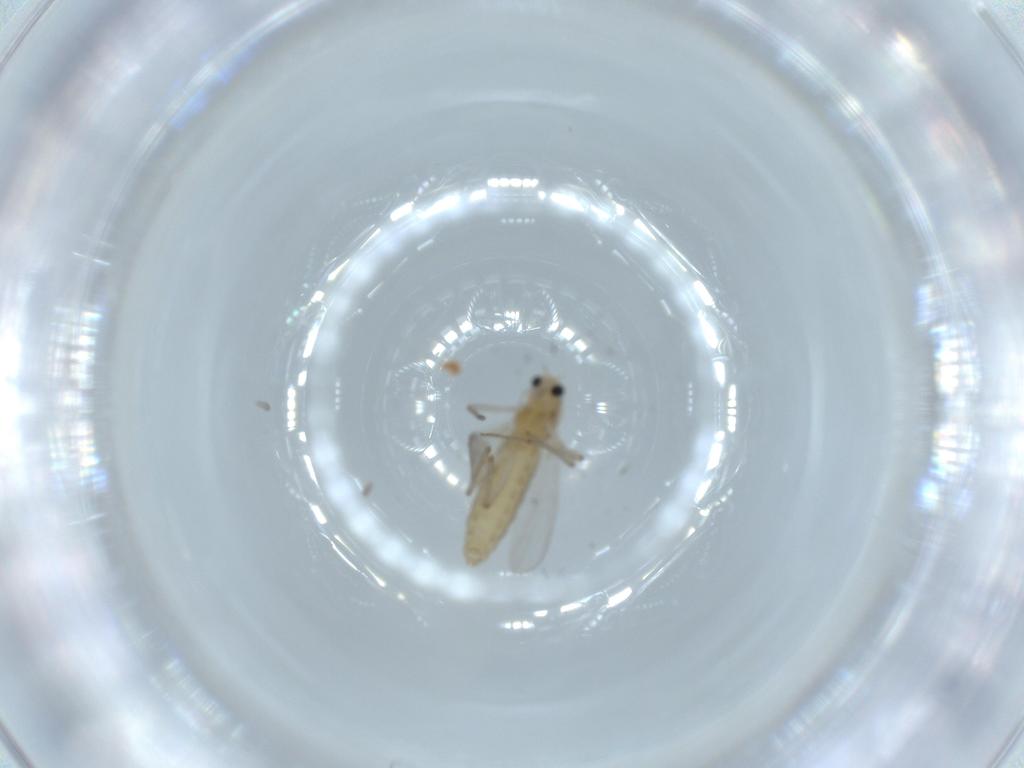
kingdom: Animalia
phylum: Arthropoda
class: Insecta
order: Diptera
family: Chironomidae
